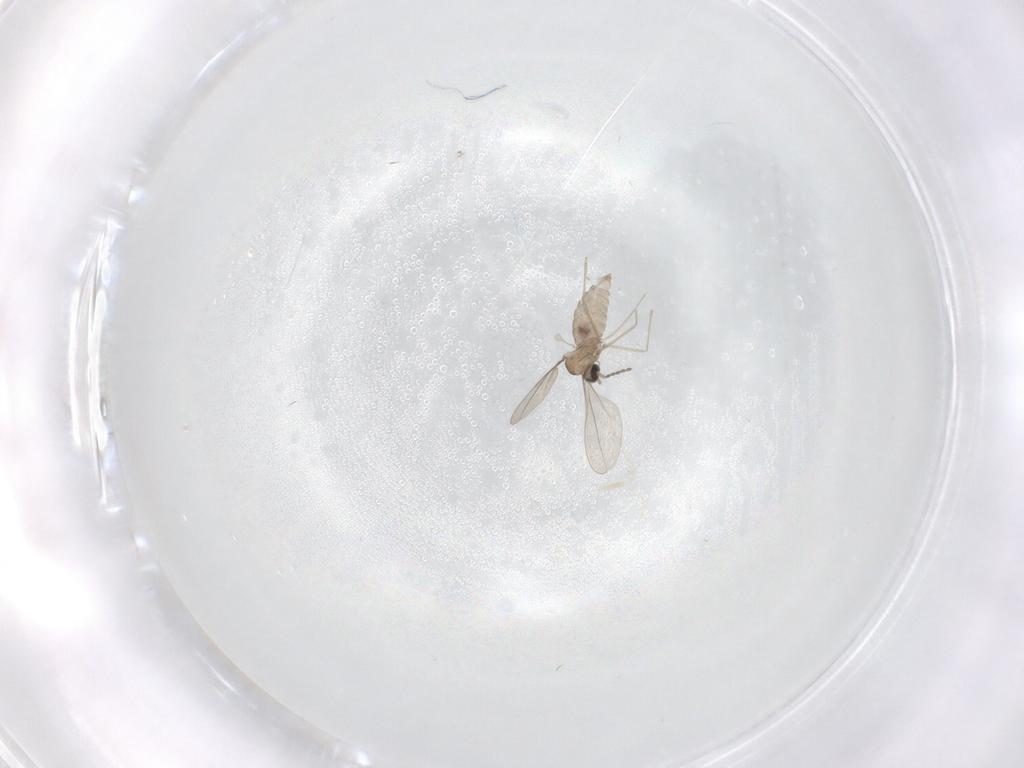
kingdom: Animalia
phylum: Arthropoda
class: Insecta
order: Diptera
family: Cecidomyiidae
